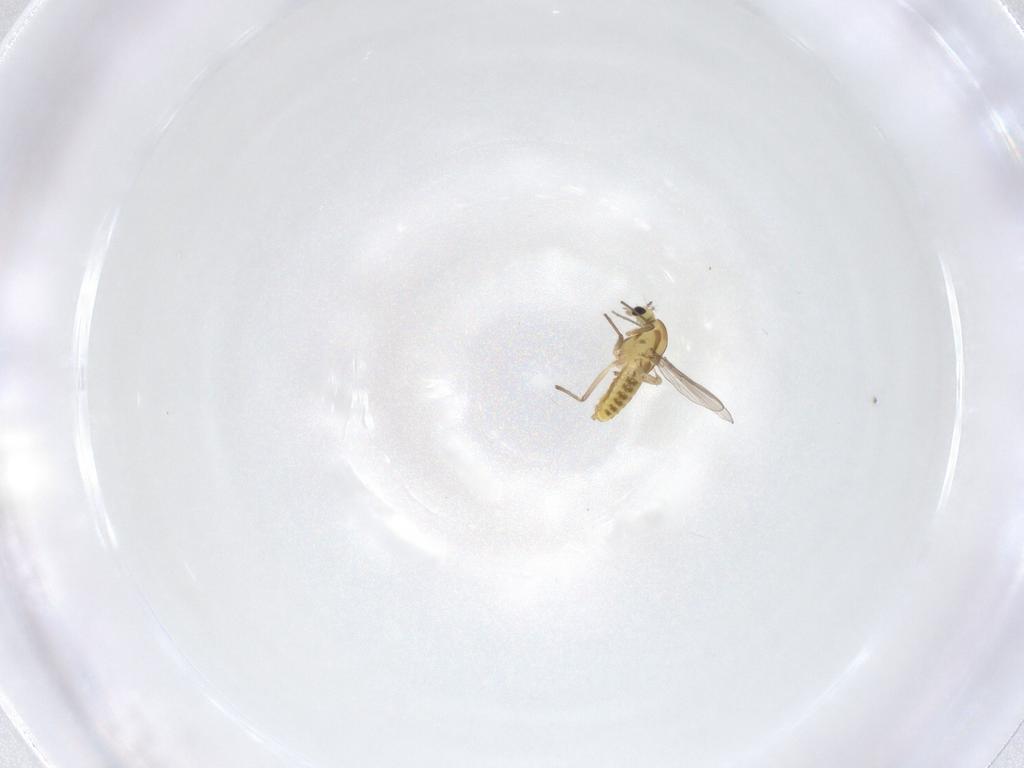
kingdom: Animalia
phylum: Arthropoda
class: Insecta
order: Diptera
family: Chironomidae
